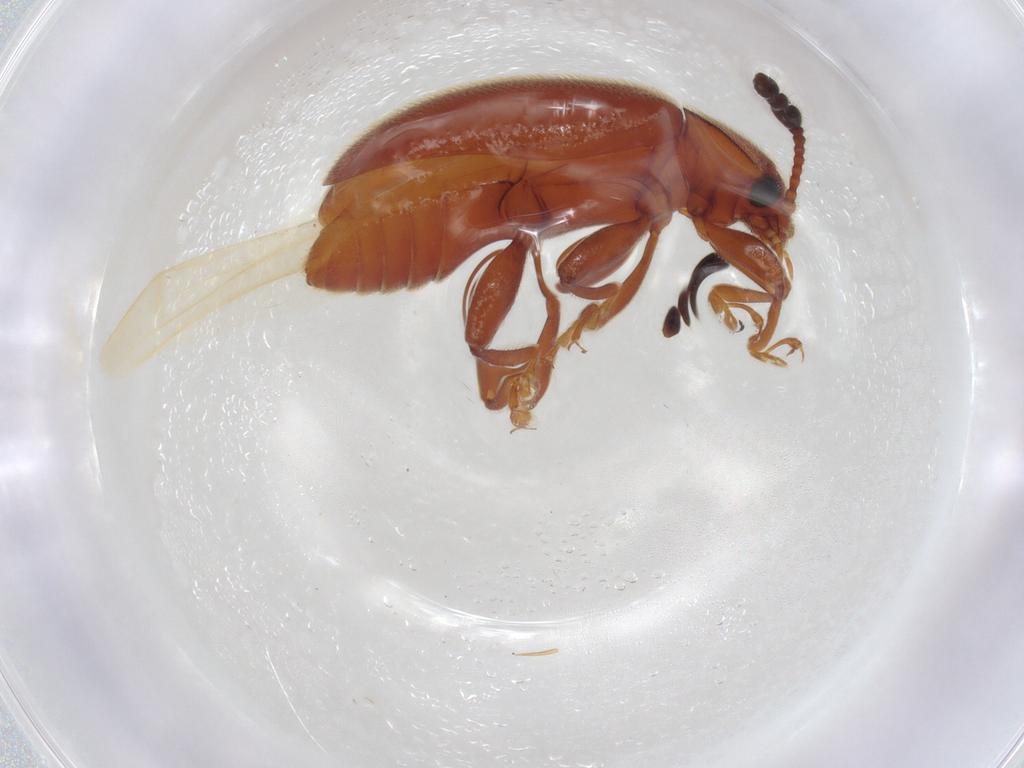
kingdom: Animalia
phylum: Arthropoda
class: Insecta
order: Coleoptera
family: Endomychidae
